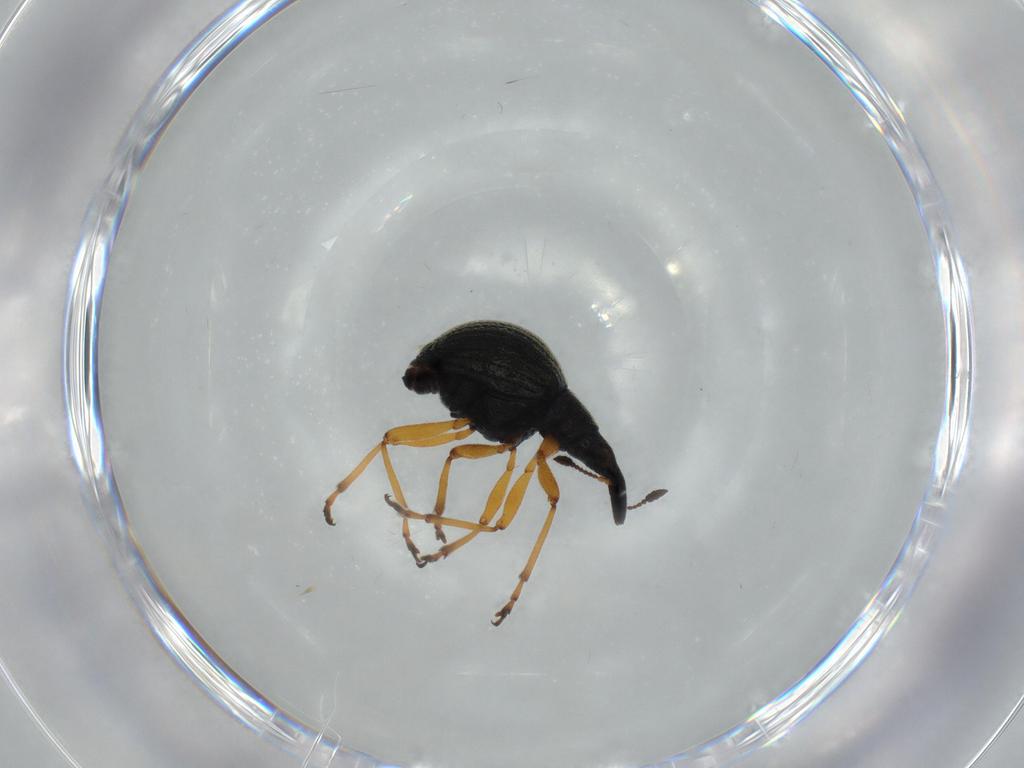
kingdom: Animalia
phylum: Arthropoda
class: Insecta
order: Coleoptera
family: Brentidae
